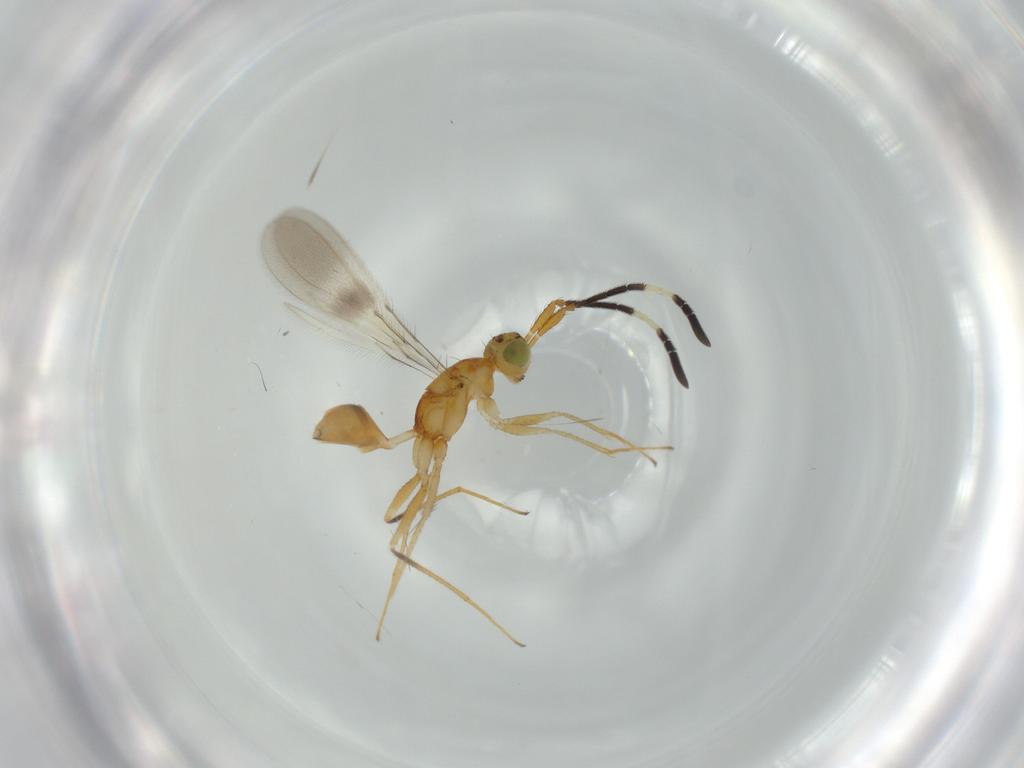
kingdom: Animalia
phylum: Arthropoda
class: Insecta
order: Hymenoptera
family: Mymaridae
